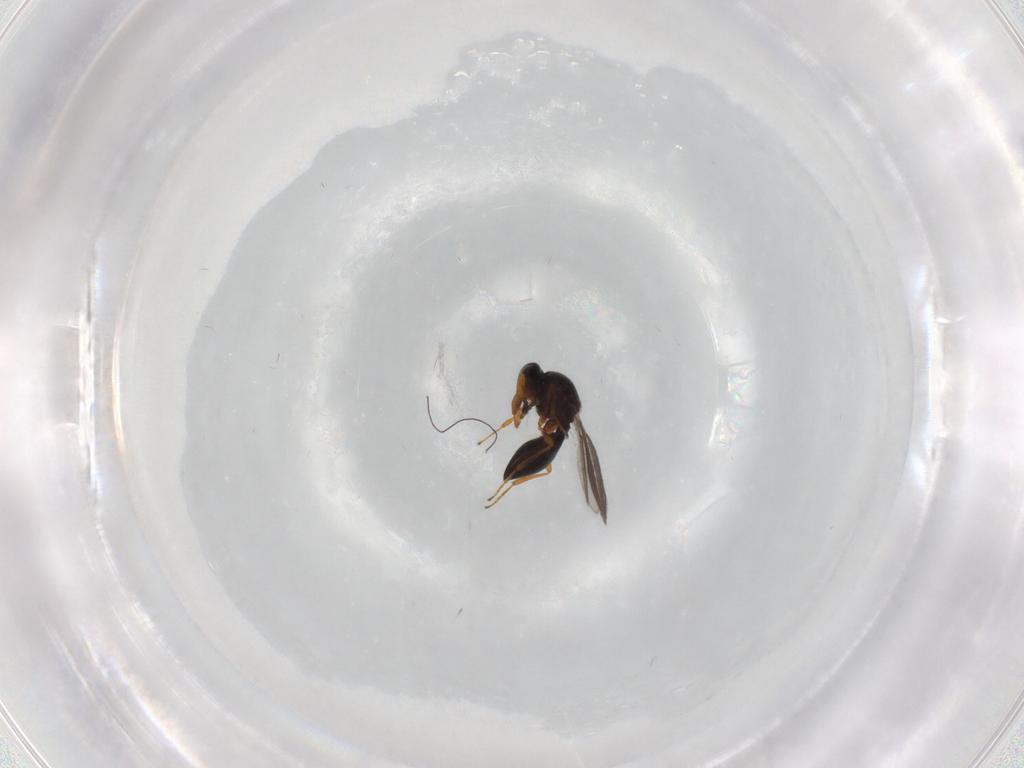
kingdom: Animalia
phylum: Arthropoda
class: Insecta
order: Hymenoptera
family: Platygastridae
